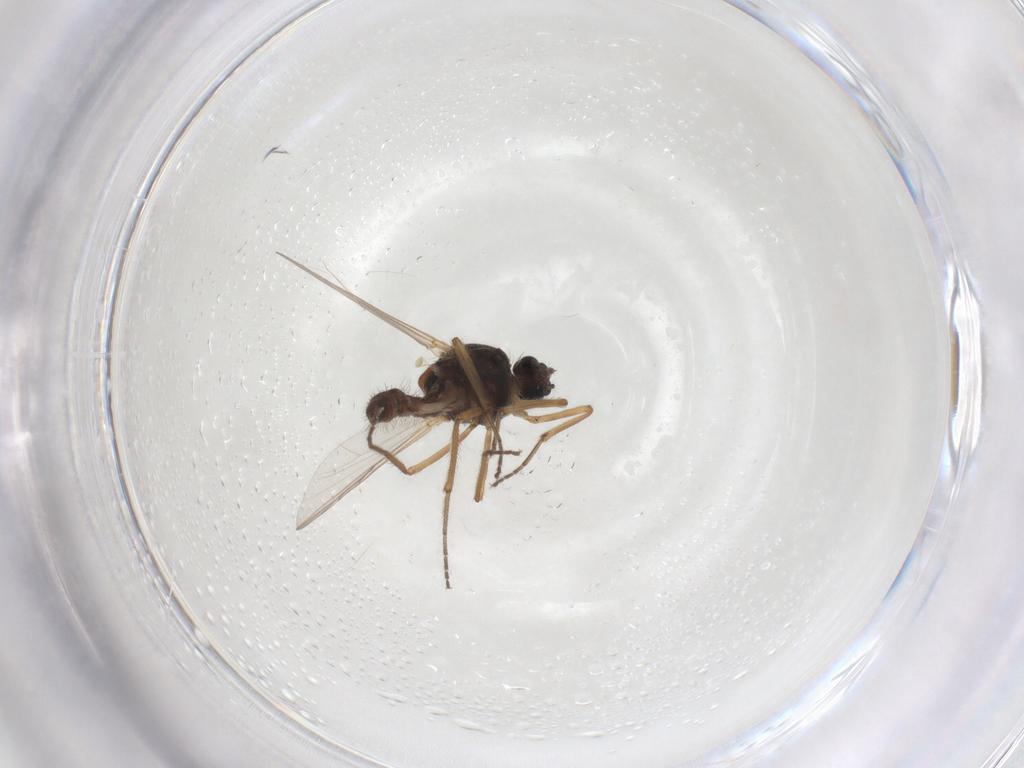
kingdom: Animalia
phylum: Arthropoda
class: Insecta
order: Diptera
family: Ceratopogonidae
